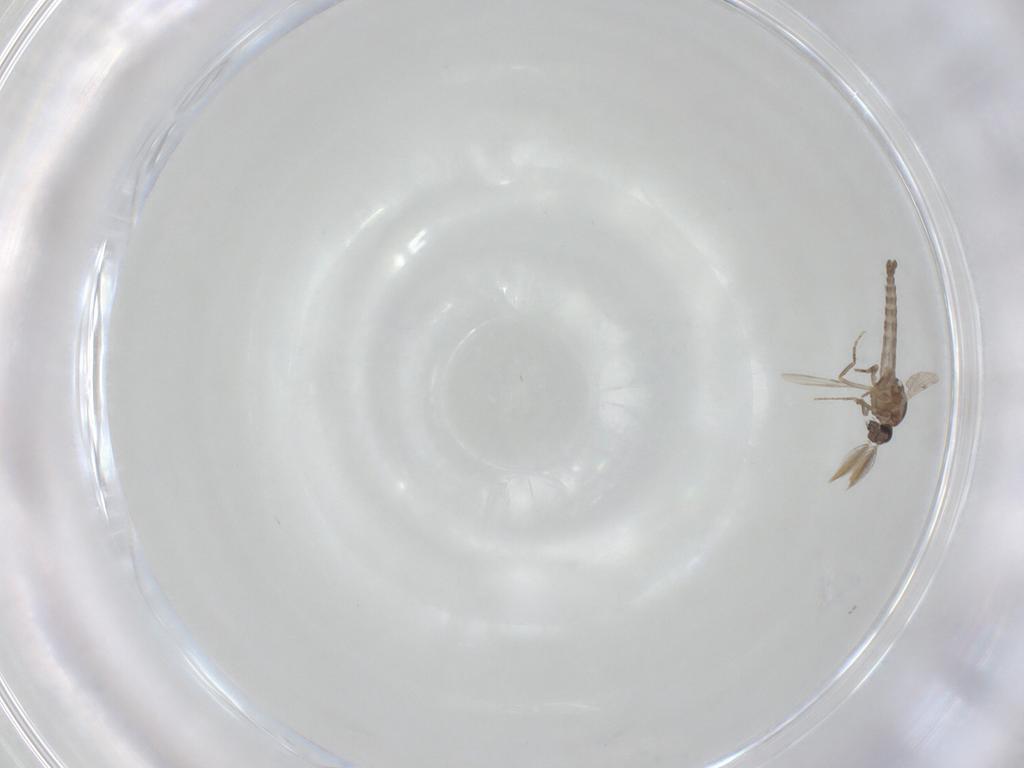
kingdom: Animalia
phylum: Arthropoda
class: Insecta
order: Diptera
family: Ceratopogonidae
